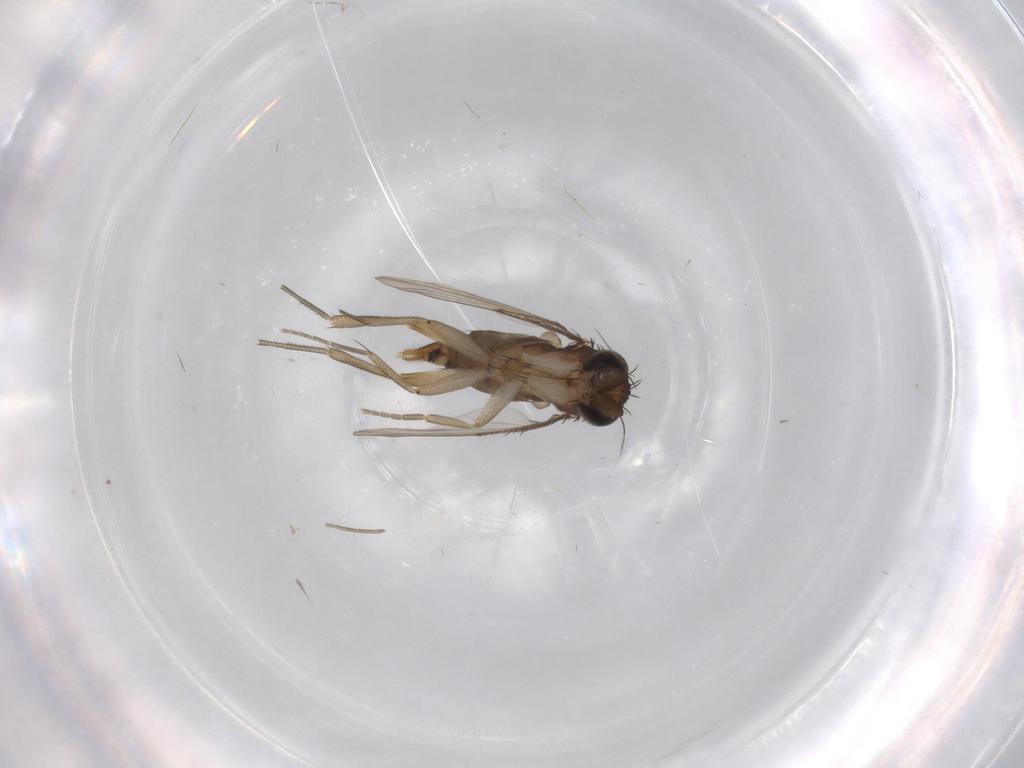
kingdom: Animalia
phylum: Arthropoda
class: Insecta
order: Diptera
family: Phoridae
